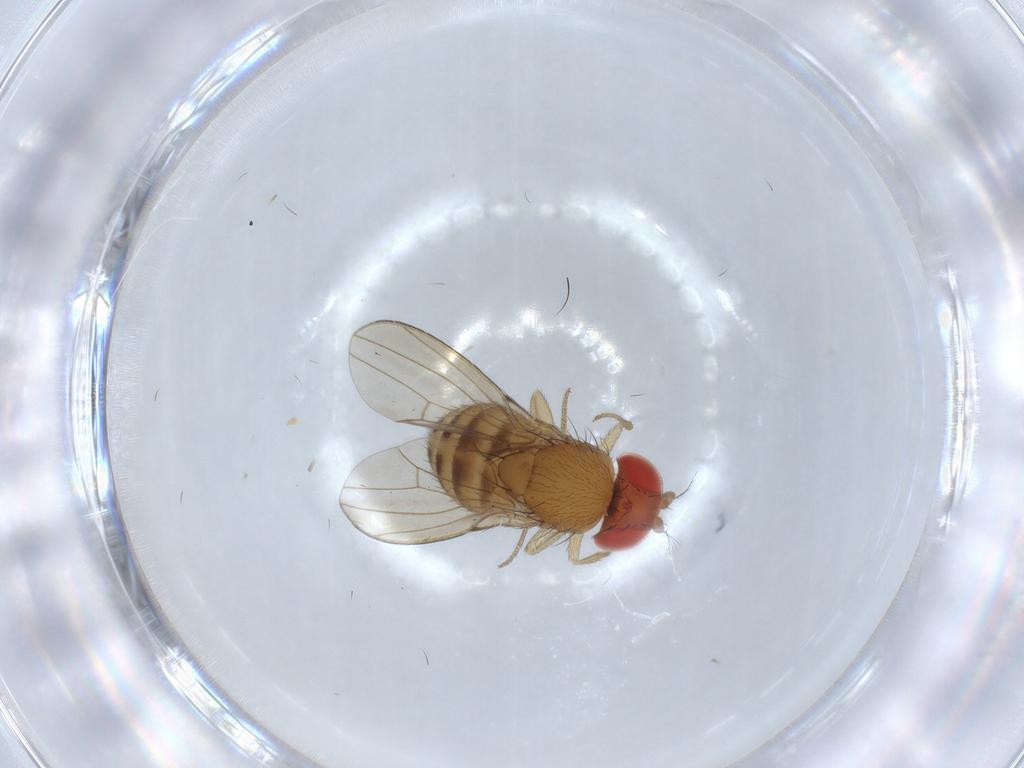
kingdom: Animalia
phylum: Arthropoda
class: Insecta
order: Diptera
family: Drosophilidae
